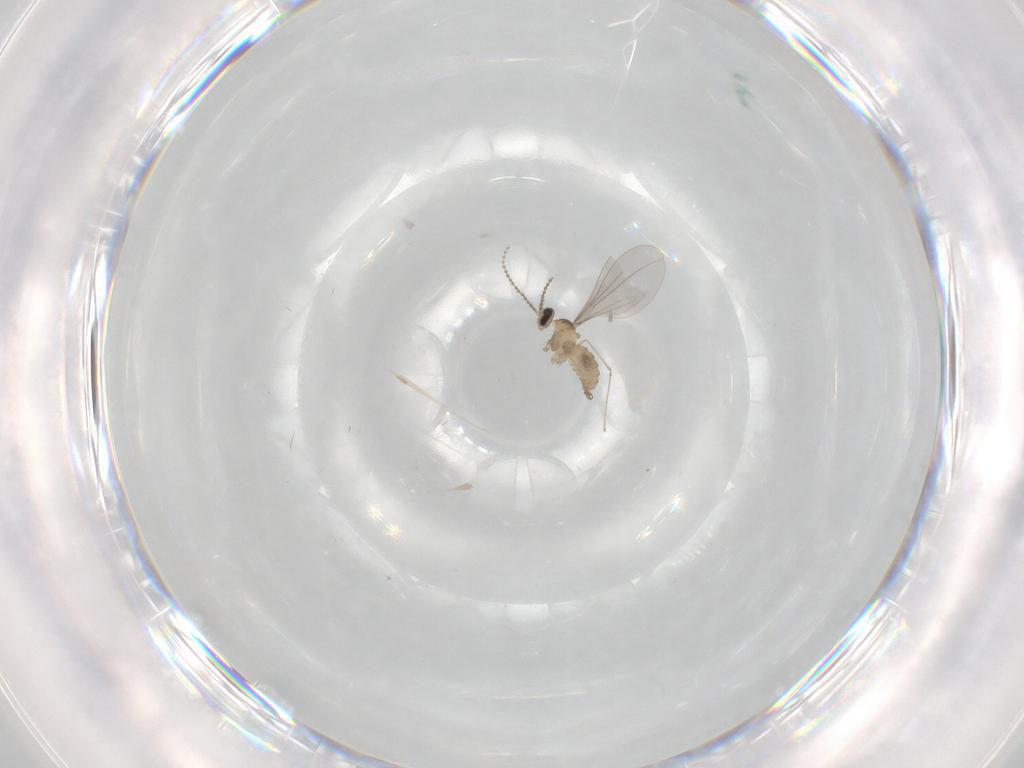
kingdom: Animalia
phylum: Arthropoda
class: Insecta
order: Diptera
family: Cecidomyiidae
